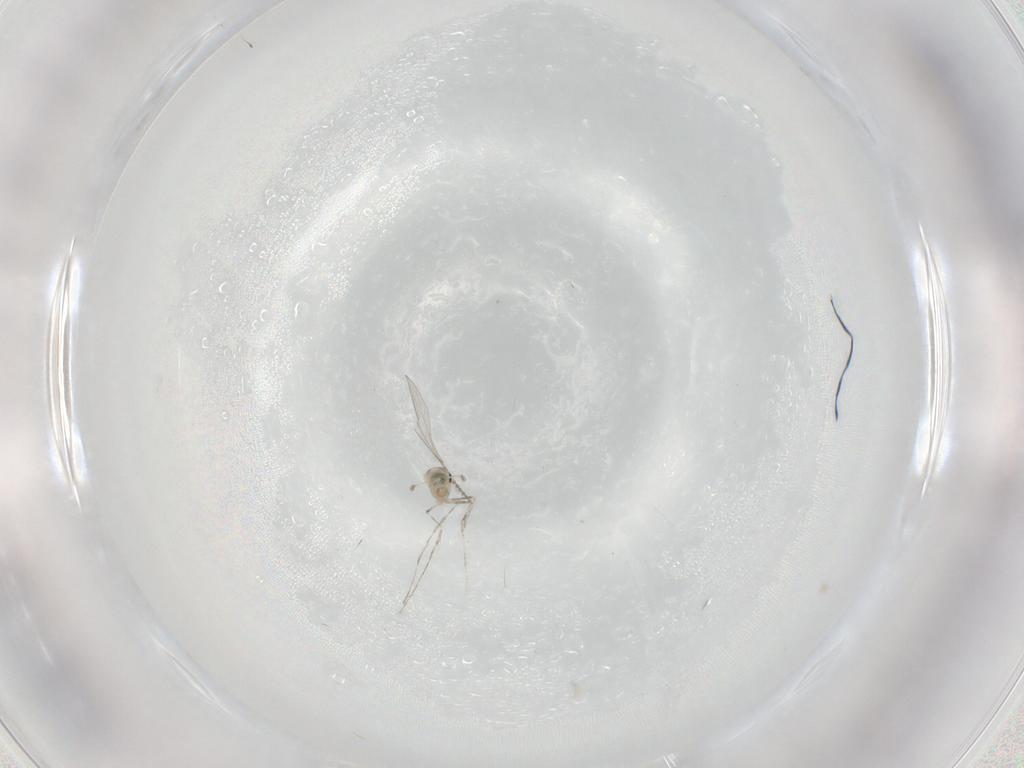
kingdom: Animalia
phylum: Arthropoda
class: Insecta
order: Diptera
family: Cecidomyiidae
